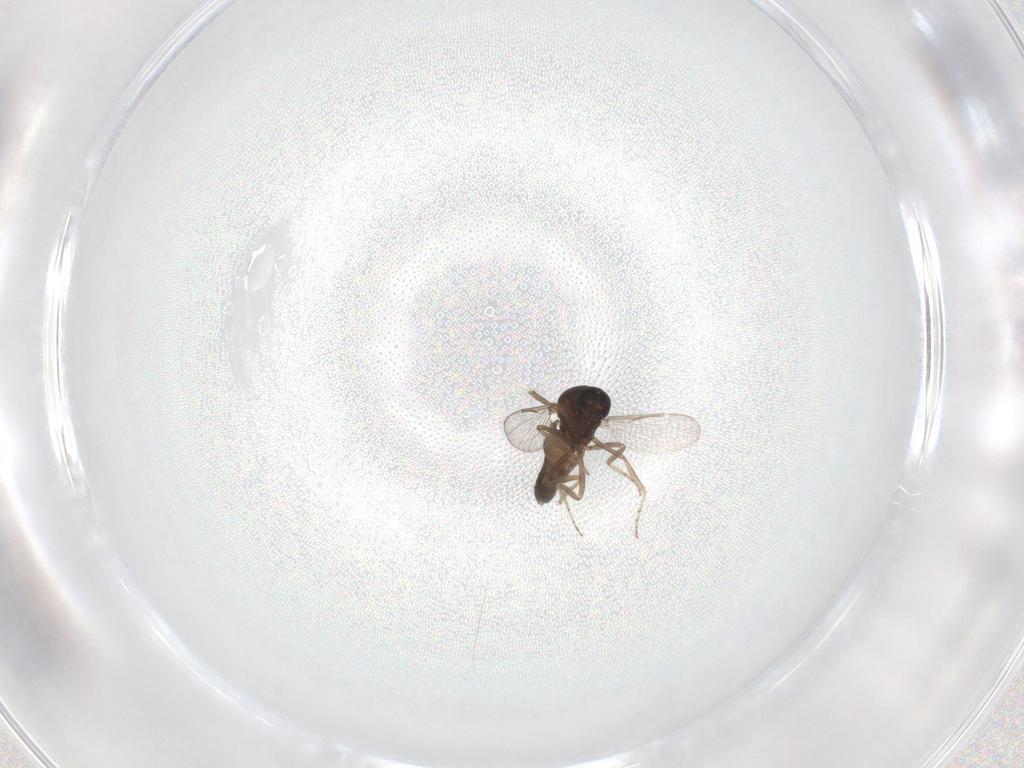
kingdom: Animalia
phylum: Arthropoda
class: Insecta
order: Diptera
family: Ceratopogonidae
